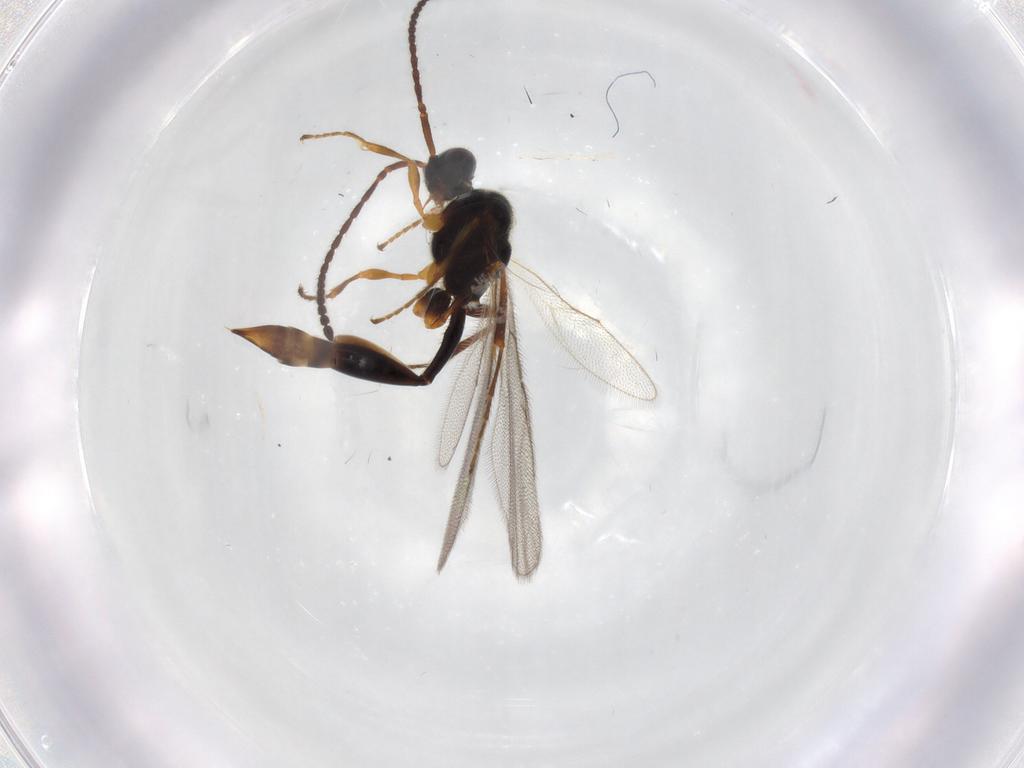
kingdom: Animalia
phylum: Arthropoda
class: Insecta
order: Hymenoptera
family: Diapriidae
